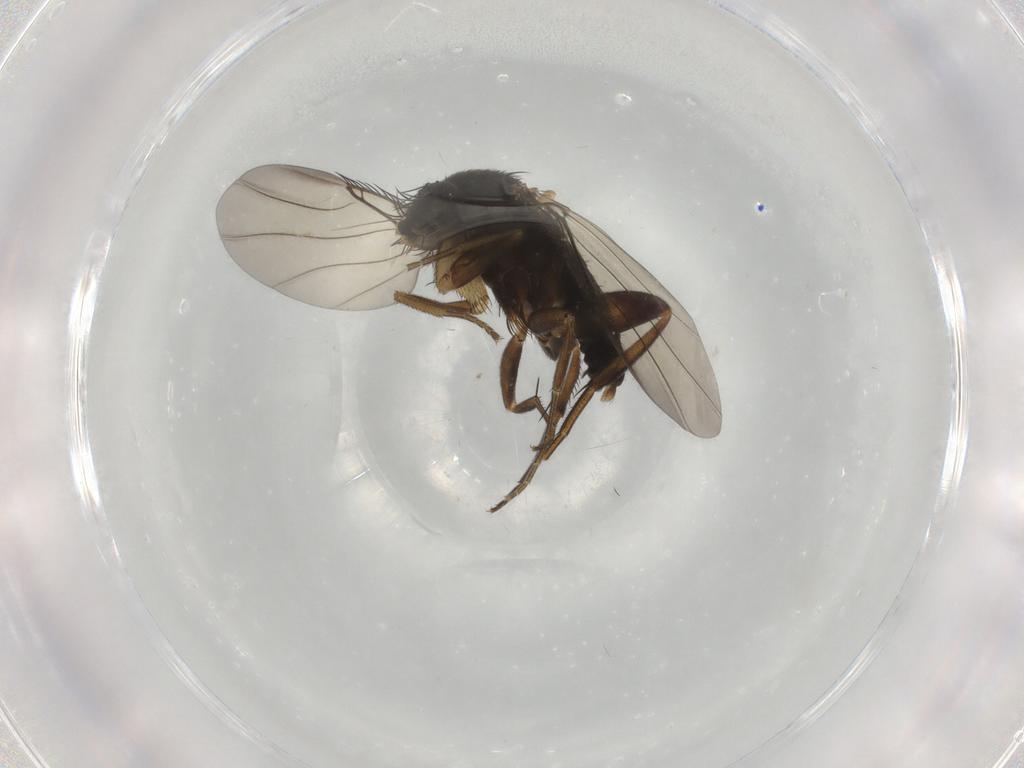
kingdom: Animalia
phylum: Arthropoda
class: Insecta
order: Diptera
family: Phoridae
